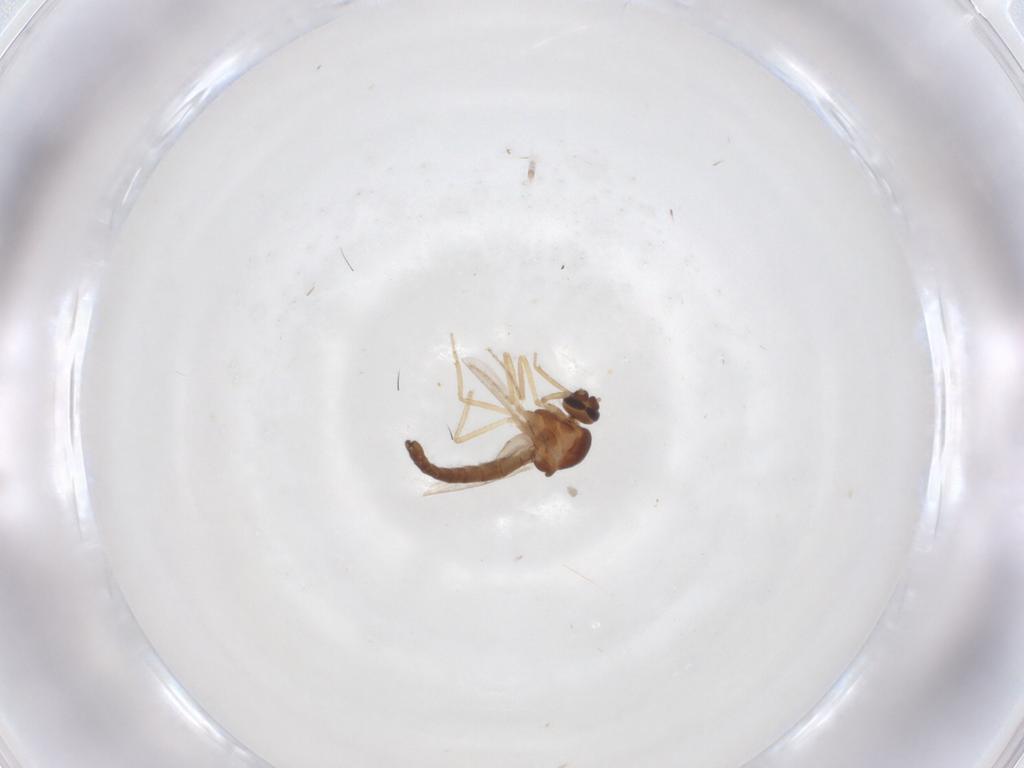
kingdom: Animalia
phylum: Arthropoda
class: Insecta
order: Diptera
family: Ceratopogonidae
